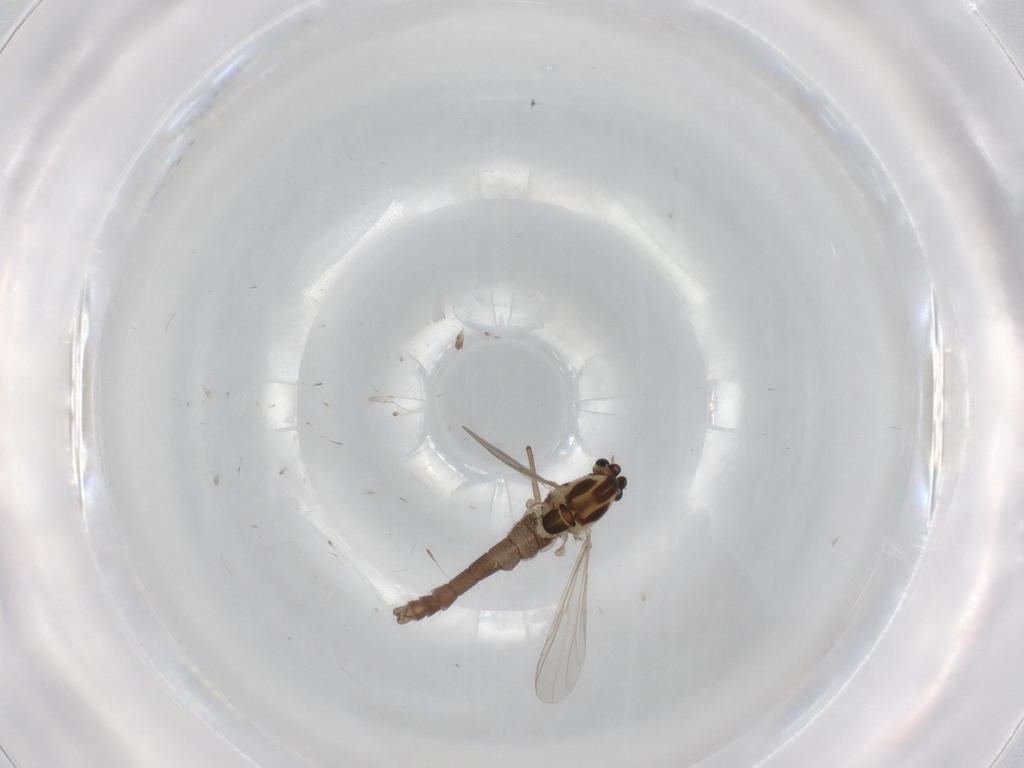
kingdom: Animalia
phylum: Arthropoda
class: Insecta
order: Diptera
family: Chironomidae
